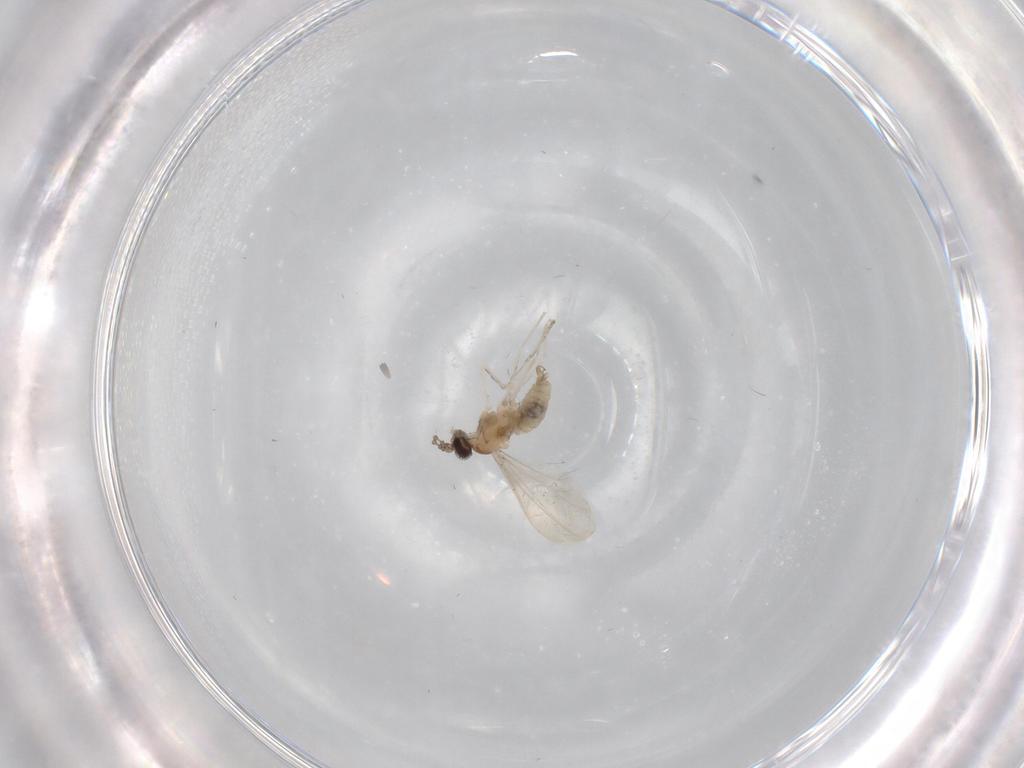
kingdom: Animalia
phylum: Arthropoda
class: Insecta
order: Diptera
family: Cecidomyiidae
